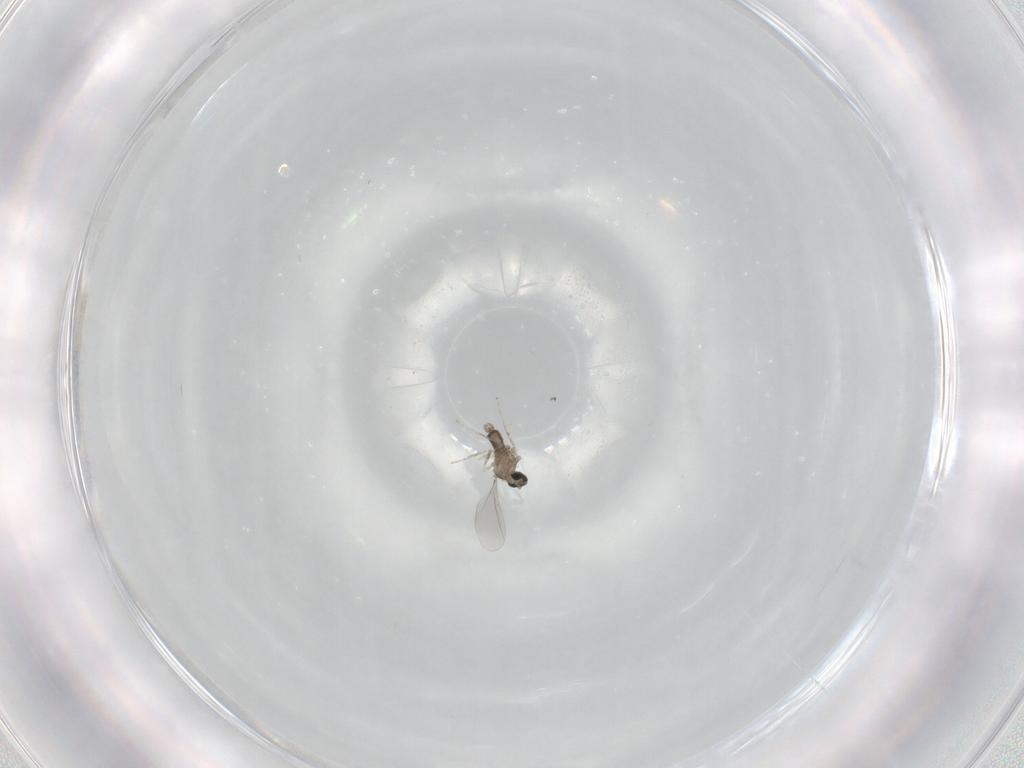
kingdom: Animalia
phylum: Arthropoda
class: Insecta
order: Diptera
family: Cecidomyiidae
